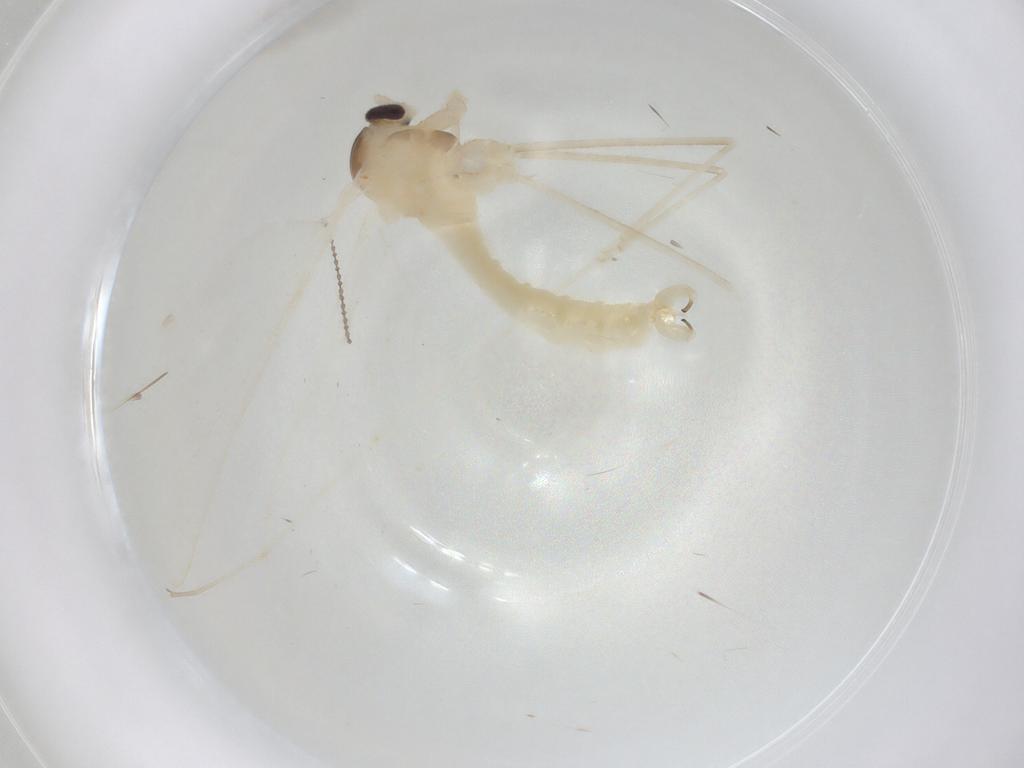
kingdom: Animalia
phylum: Arthropoda
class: Insecta
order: Diptera
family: Cecidomyiidae
